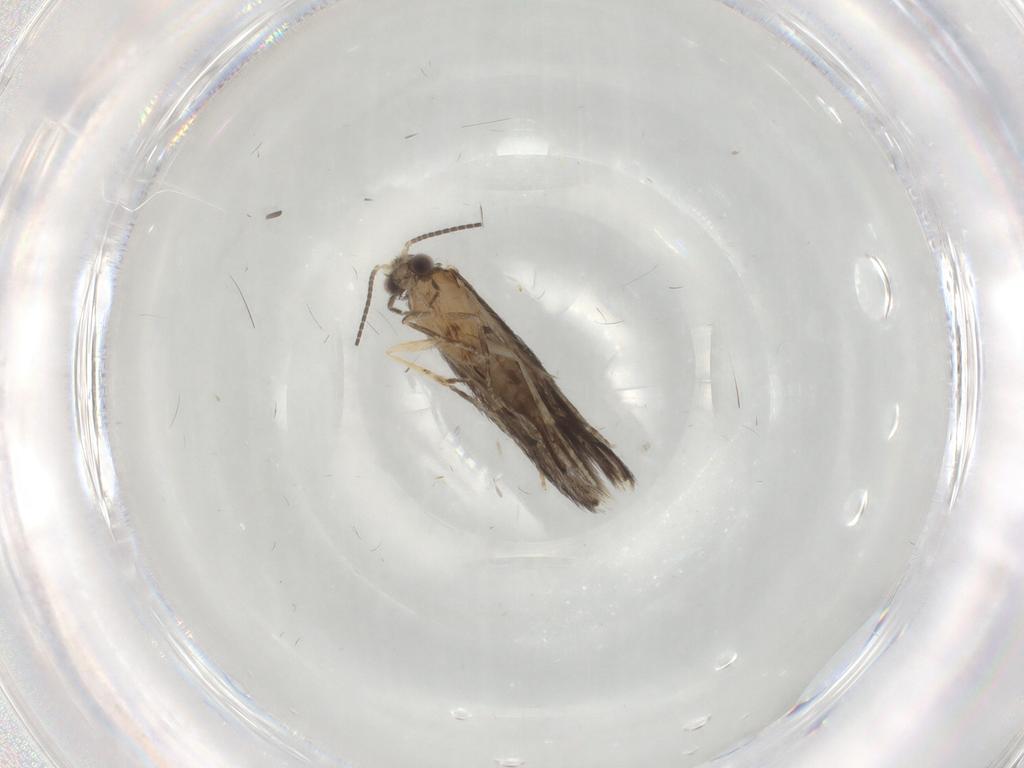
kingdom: Animalia
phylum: Arthropoda
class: Insecta
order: Trichoptera
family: Hydroptilidae
